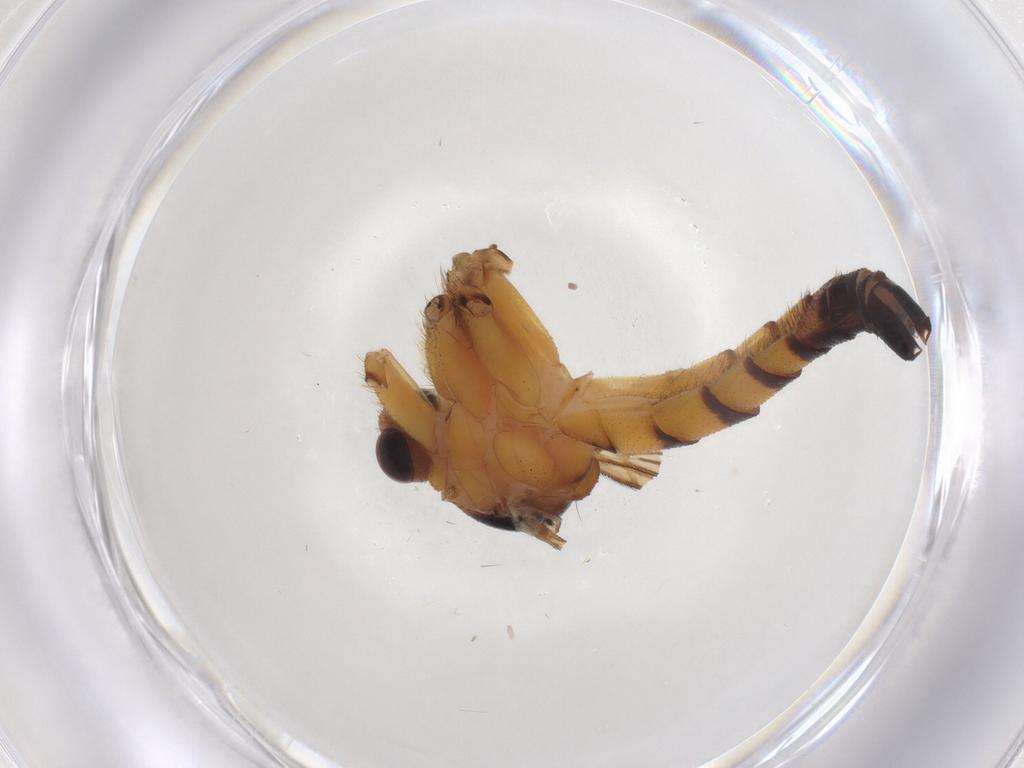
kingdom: Animalia
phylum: Arthropoda
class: Insecta
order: Diptera
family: Mycetophilidae
